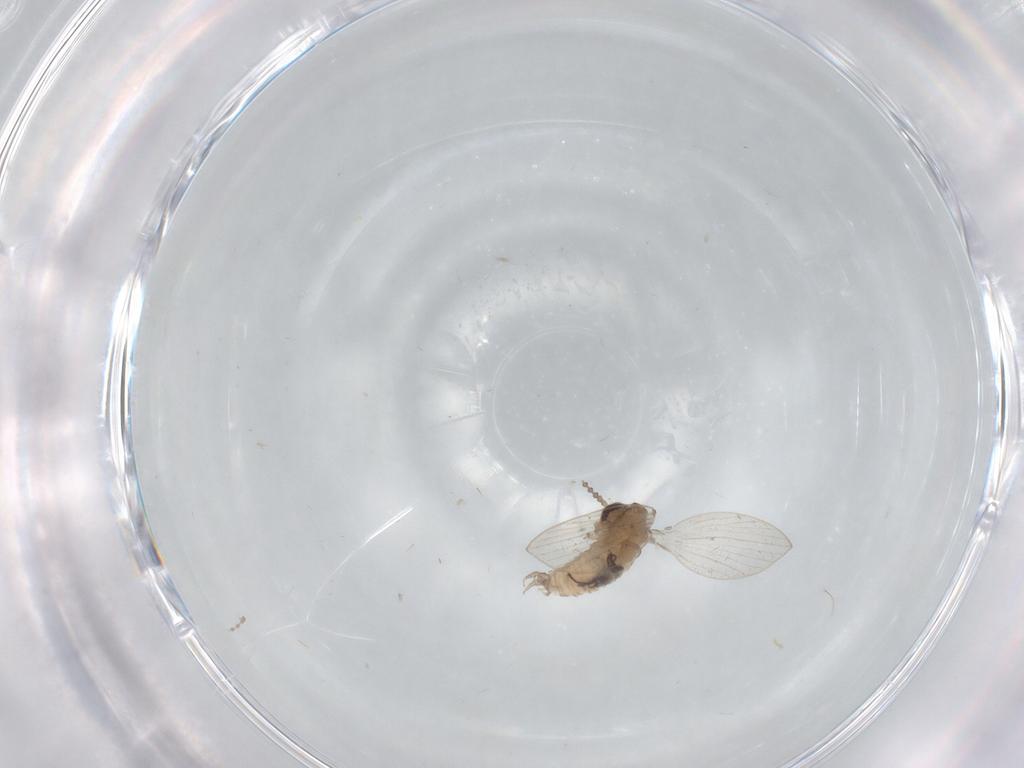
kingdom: Animalia
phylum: Arthropoda
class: Insecta
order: Diptera
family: Psychodidae
